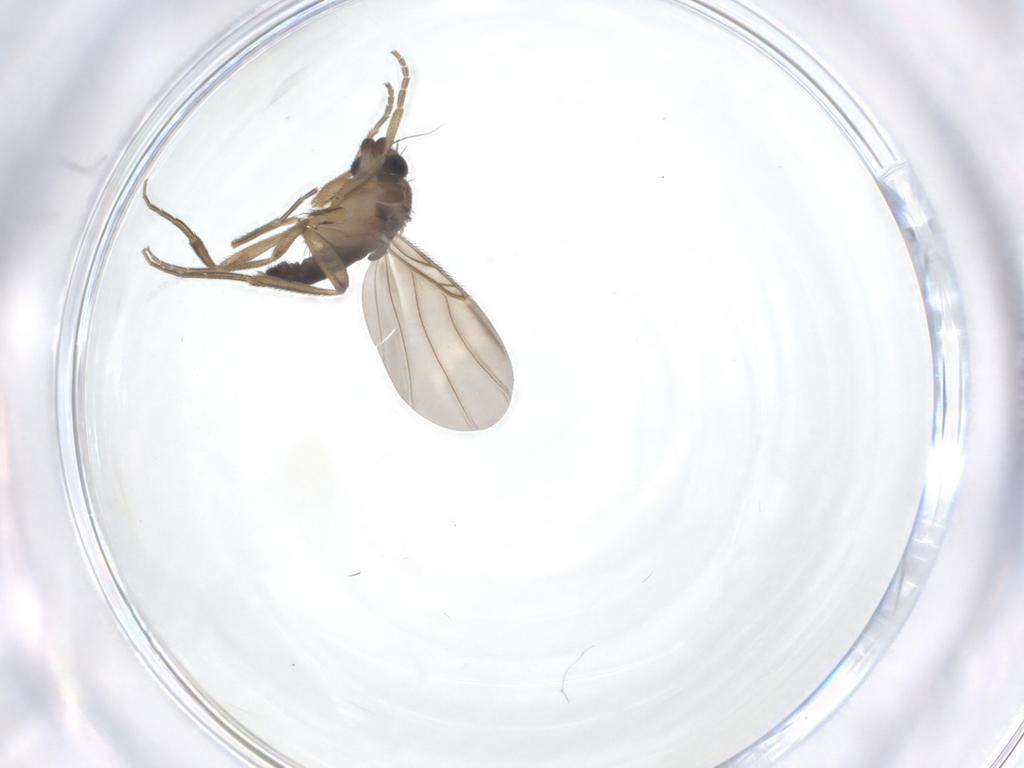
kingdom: Animalia
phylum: Arthropoda
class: Insecta
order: Diptera
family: Phoridae
